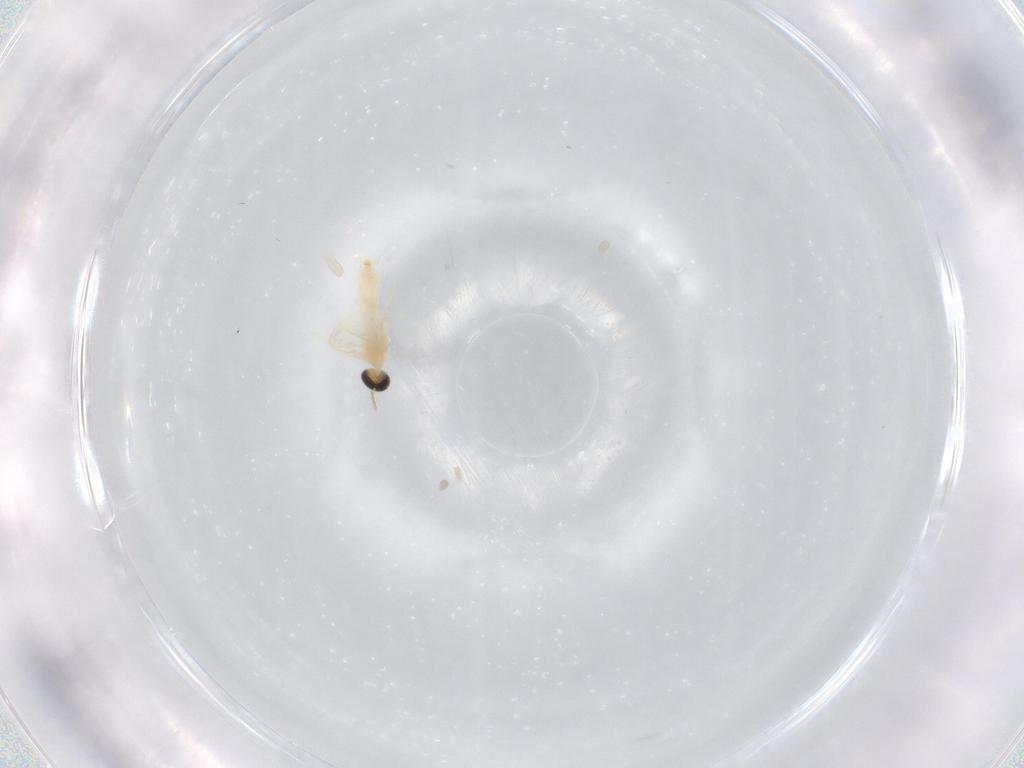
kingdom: Animalia
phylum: Arthropoda
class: Insecta
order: Diptera
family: Cecidomyiidae
